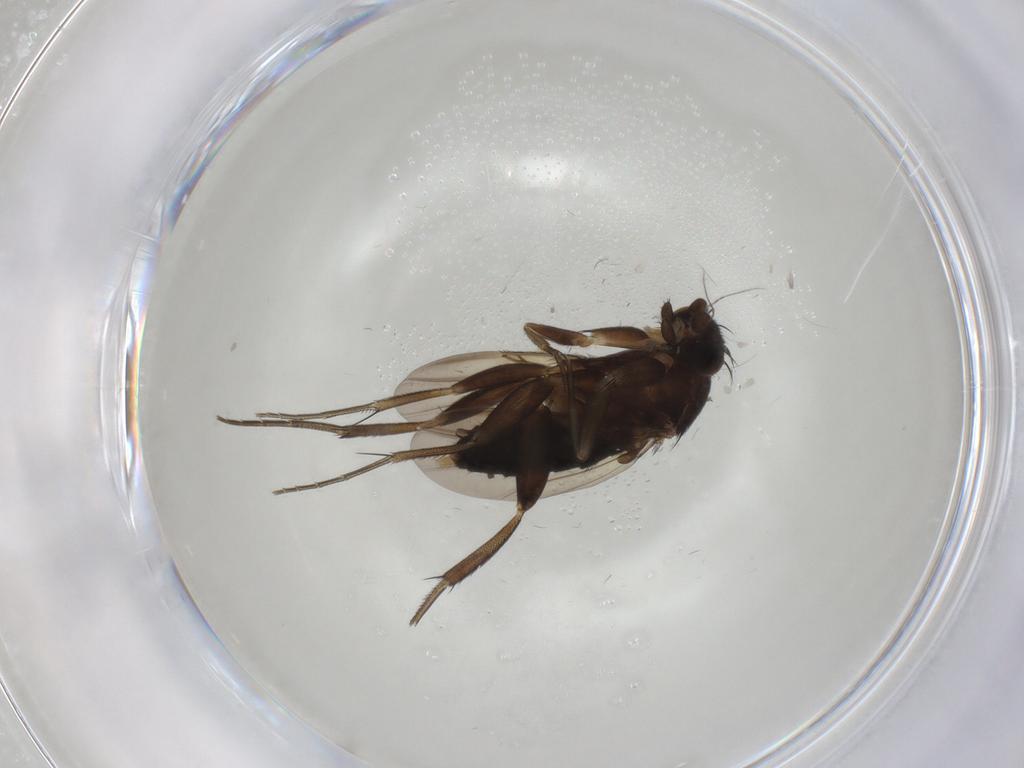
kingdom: Animalia
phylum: Arthropoda
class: Insecta
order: Diptera
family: Phoridae
